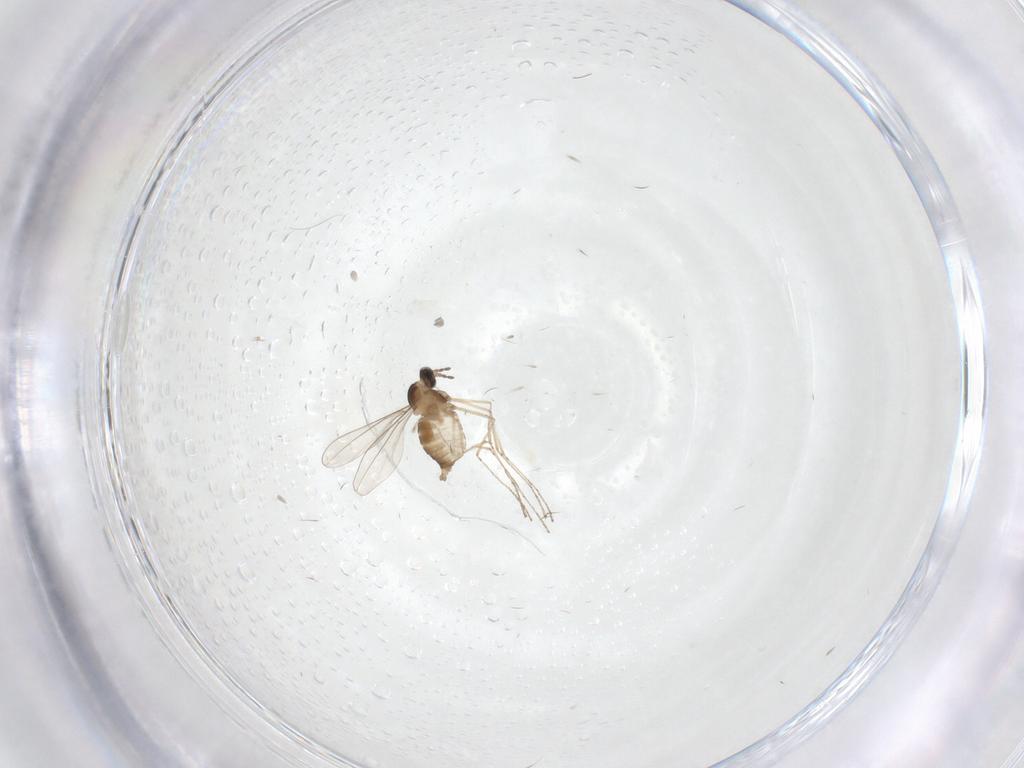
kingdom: Animalia
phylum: Arthropoda
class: Insecta
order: Diptera
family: Cecidomyiidae
